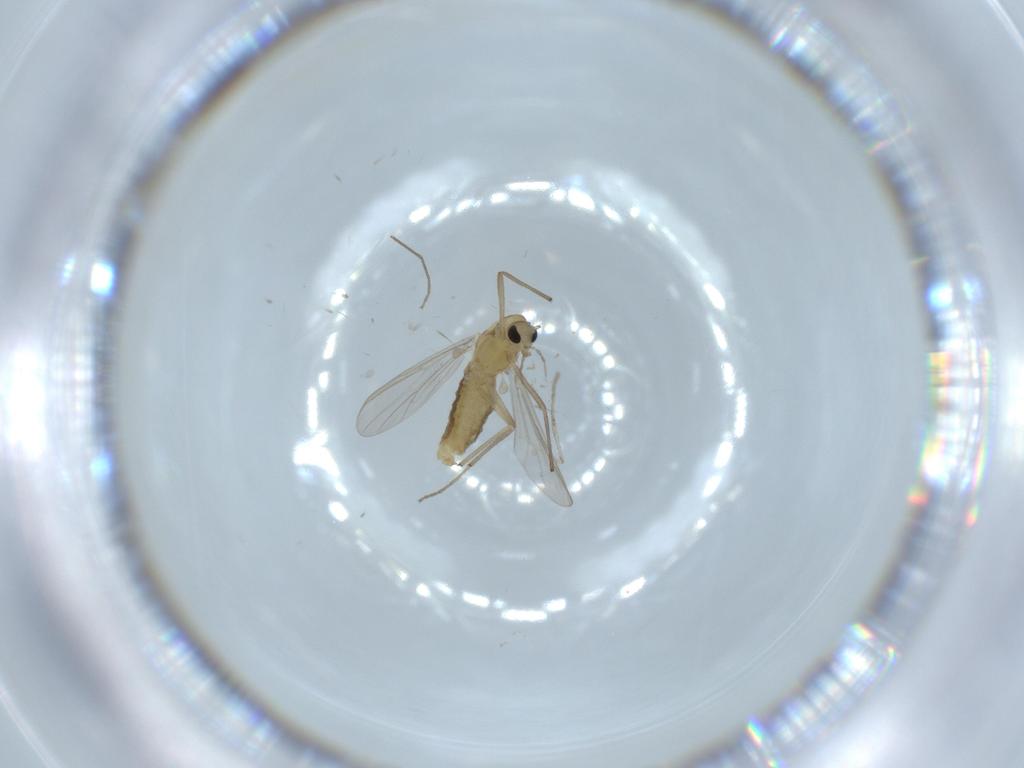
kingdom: Animalia
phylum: Arthropoda
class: Insecta
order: Diptera
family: Chironomidae
